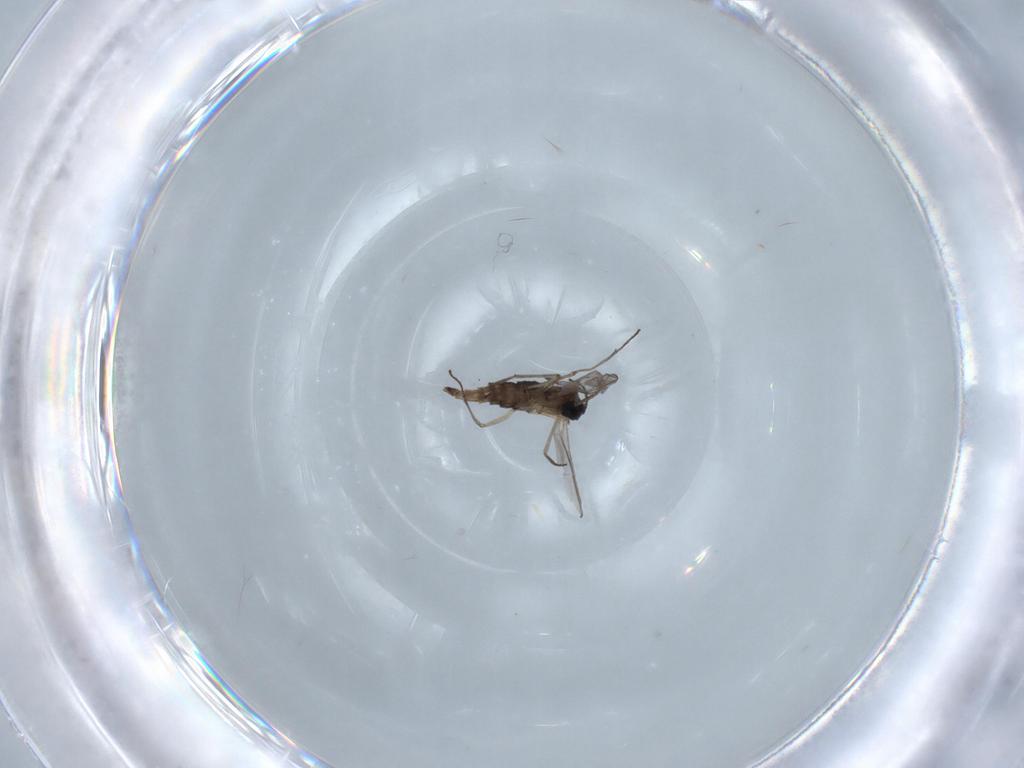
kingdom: Animalia
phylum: Arthropoda
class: Insecta
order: Diptera
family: Sciaridae
